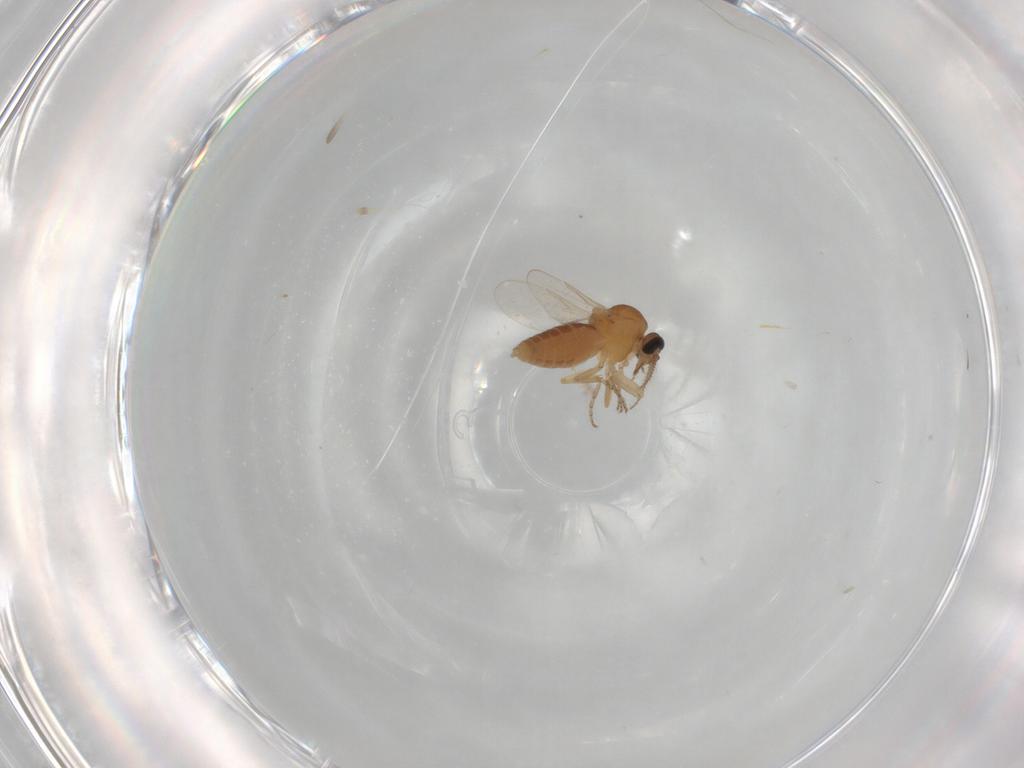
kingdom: Animalia
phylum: Arthropoda
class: Insecta
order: Diptera
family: Ceratopogonidae
